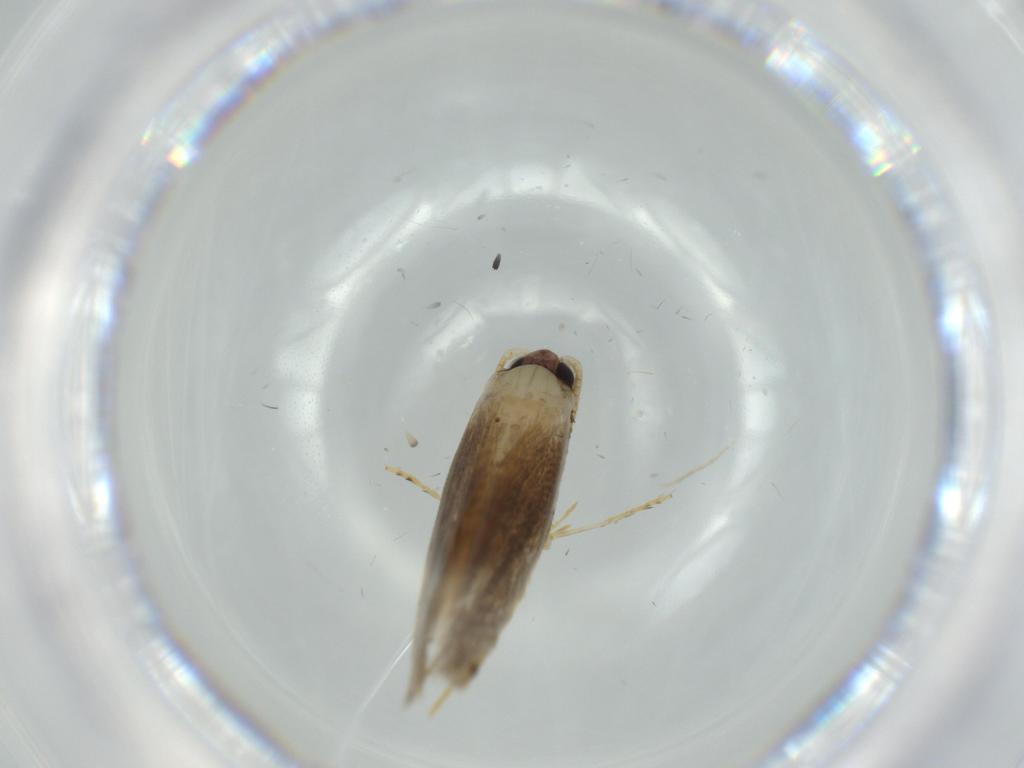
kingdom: Animalia
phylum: Arthropoda
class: Insecta
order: Lepidoptera
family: Tineidae
